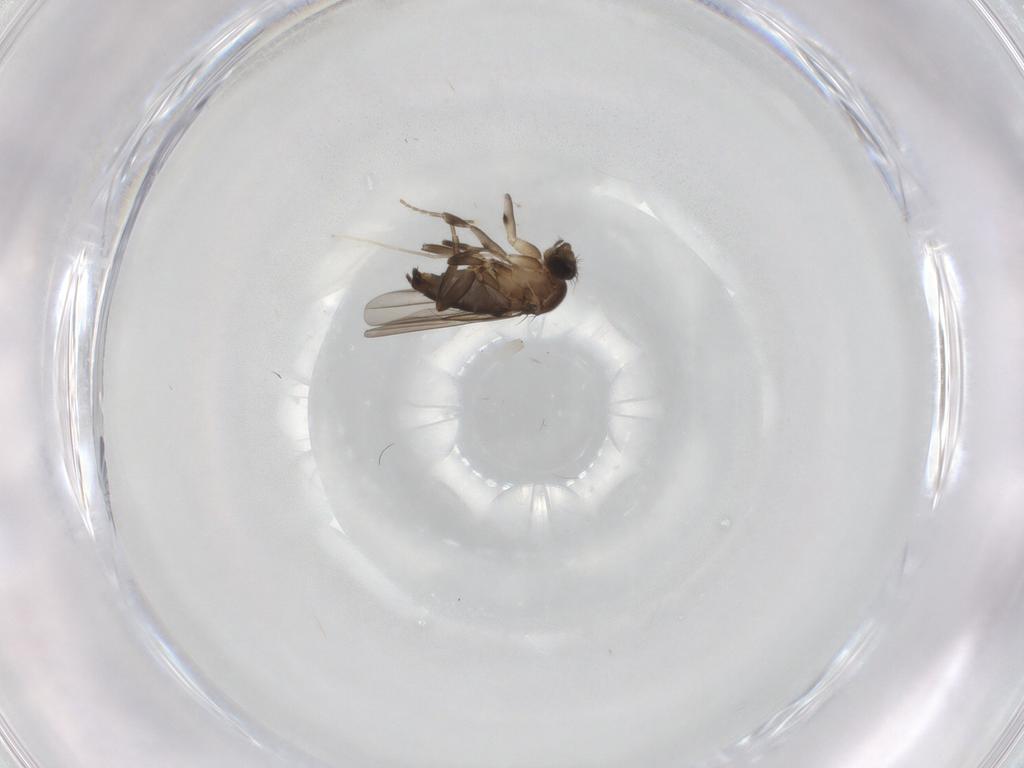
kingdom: Animalia
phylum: Arthropoda
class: Insecta
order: Diptera
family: Phoridae
